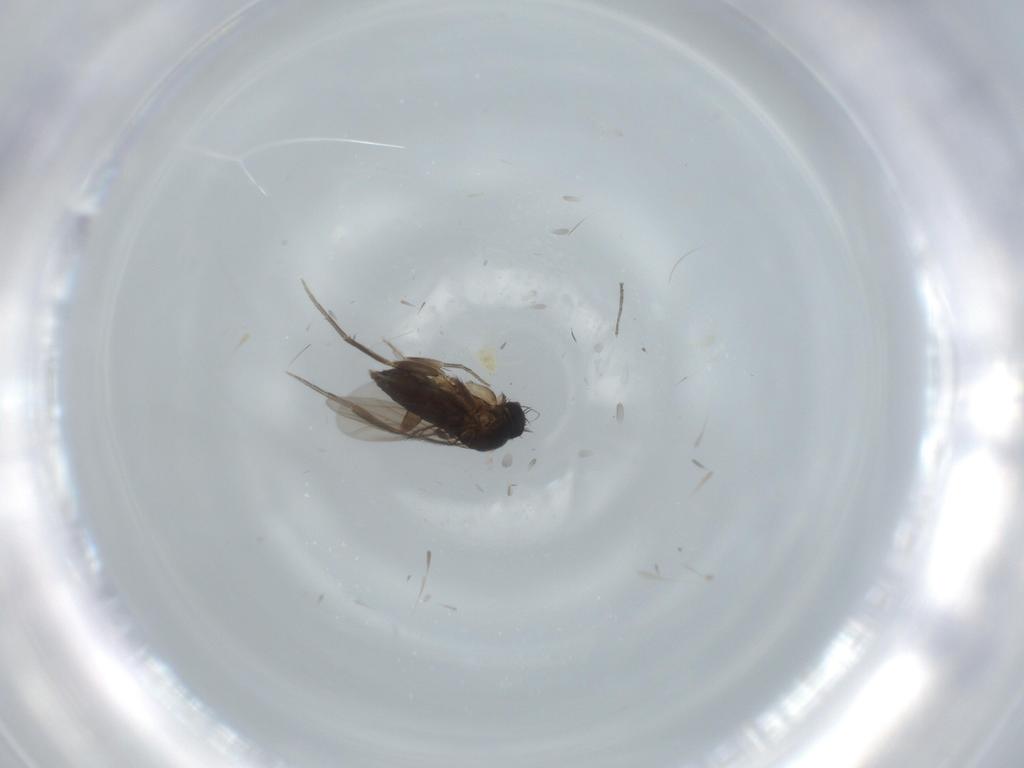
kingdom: Animalia
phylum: Arthropoda
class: Insecta
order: Diptera
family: Phoridae
